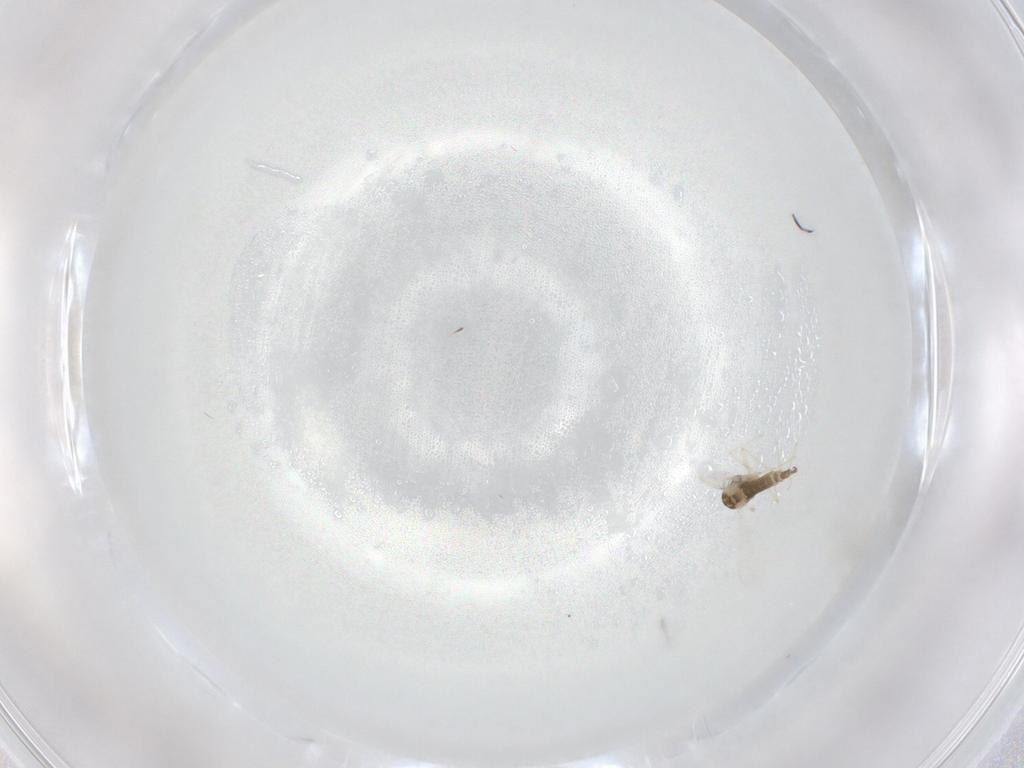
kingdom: Animalia
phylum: Arthropoda
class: Insecta
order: Diptera
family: Chironomidae
